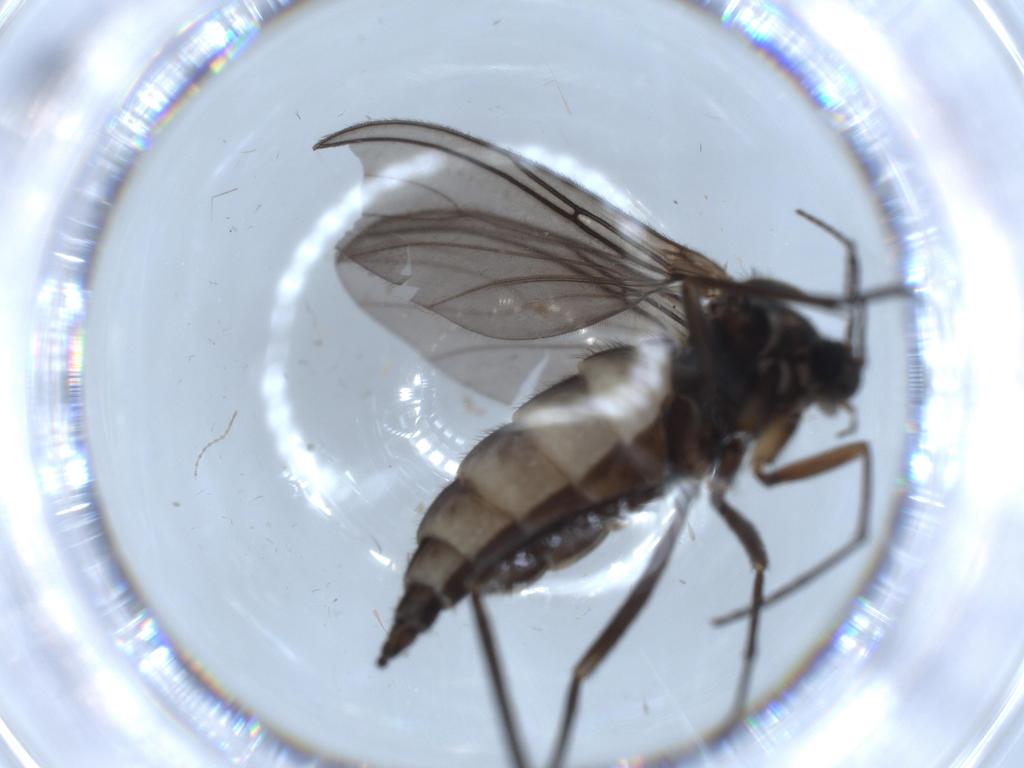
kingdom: Animalia
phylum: Arthropoda
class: Insecta
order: Diptera
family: Sciaridae
